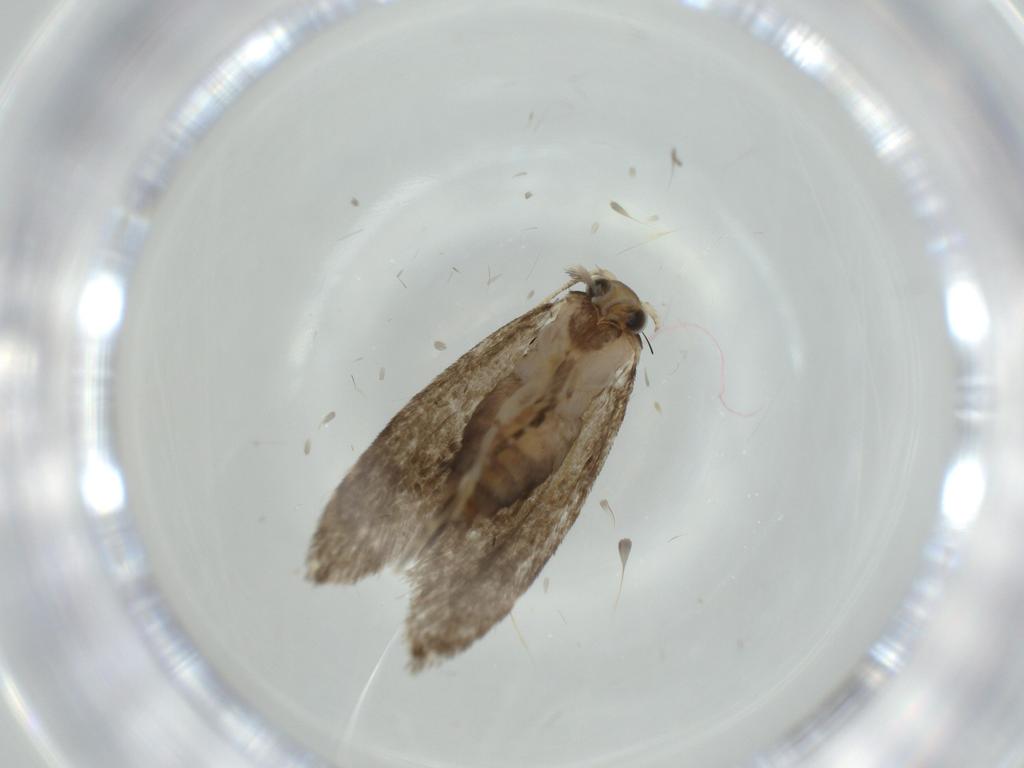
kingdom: Animalia
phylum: Arthropoda
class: Insecta
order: Lepidoptera
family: Tineidae
